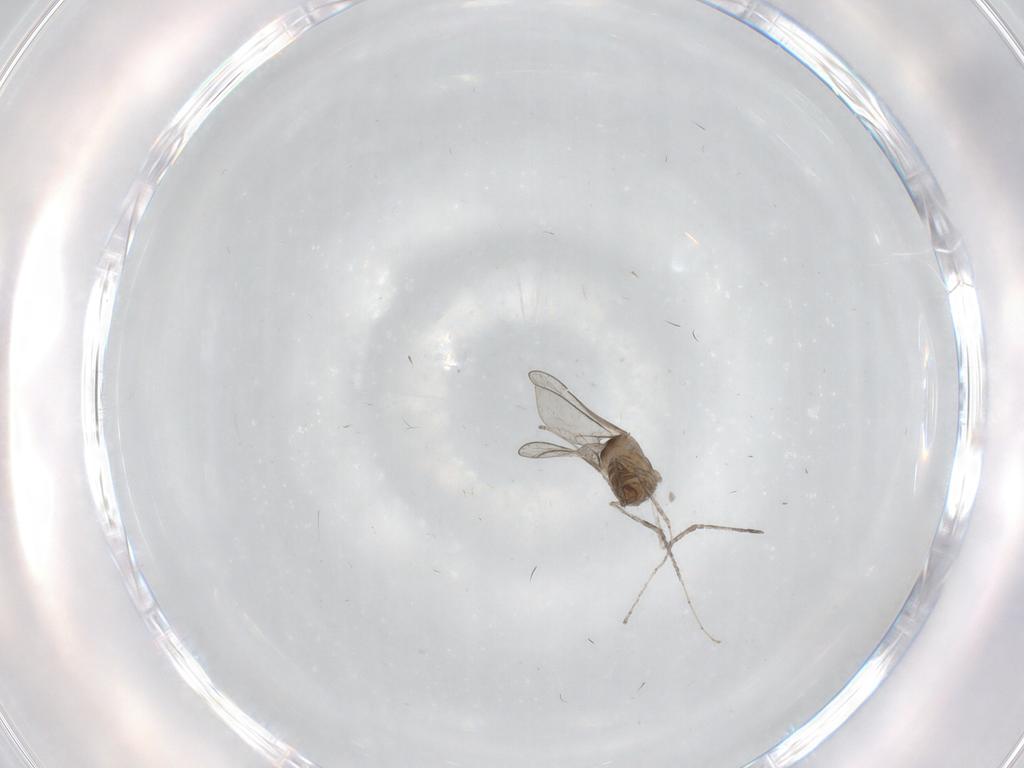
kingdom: Animalia
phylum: Arthropoda
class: Insecta
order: Diptera
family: Cecidomyiidae
